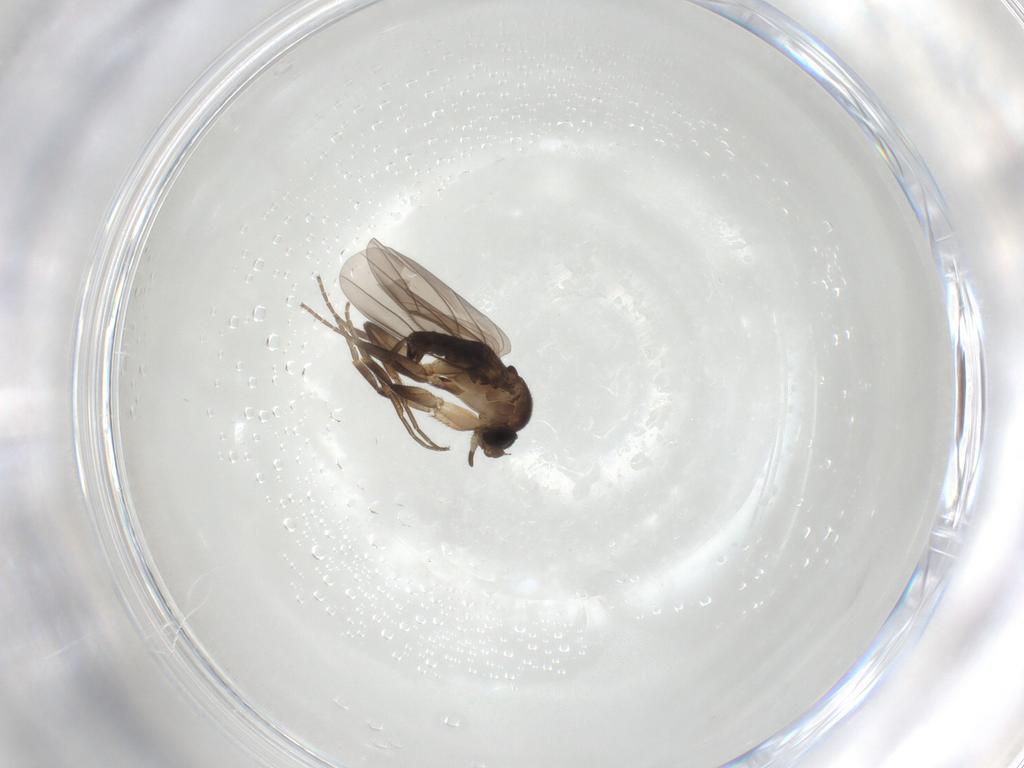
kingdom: Animalia
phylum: Arthropoda
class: Insecta
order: Diptera
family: Phoridae
